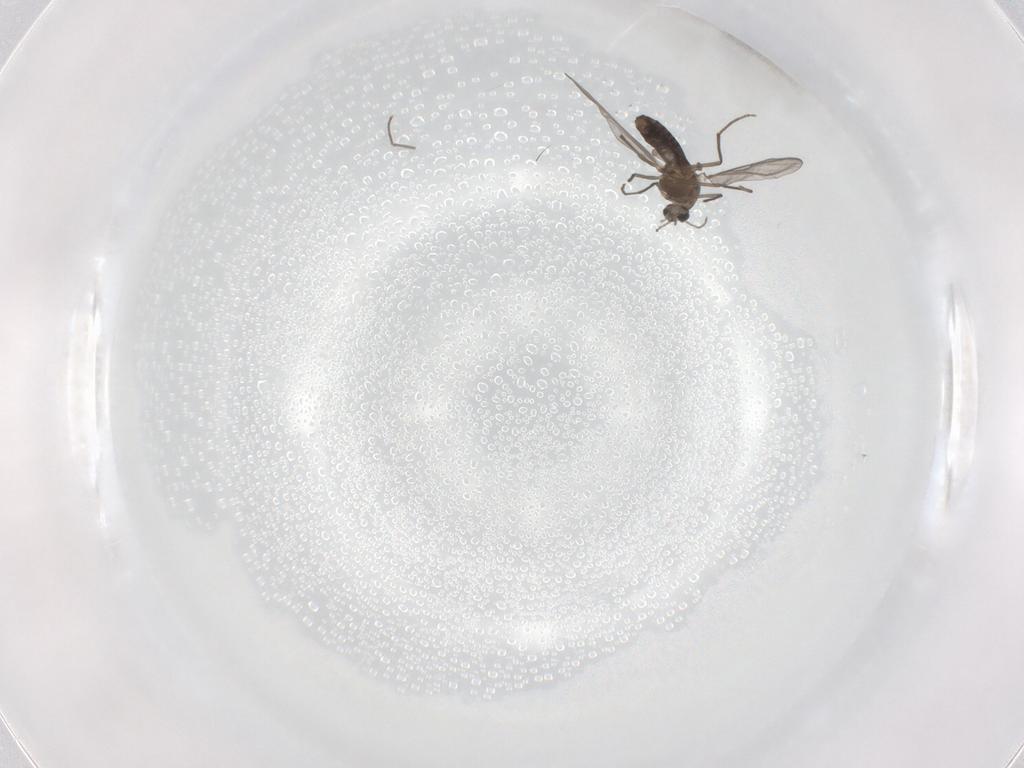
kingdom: Animalia
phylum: Arthropoda
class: Insecta
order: Diptera
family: Chironomidae
